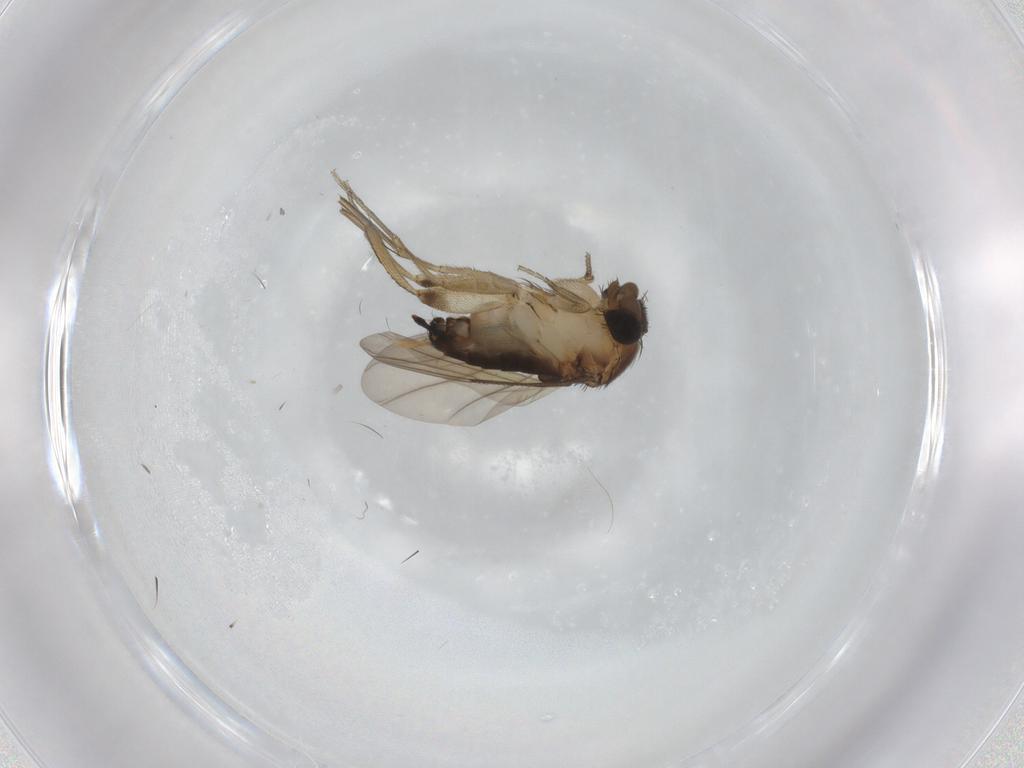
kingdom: Animalia
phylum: Arthropoda
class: Insecta
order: Diptera
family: Phoridae
